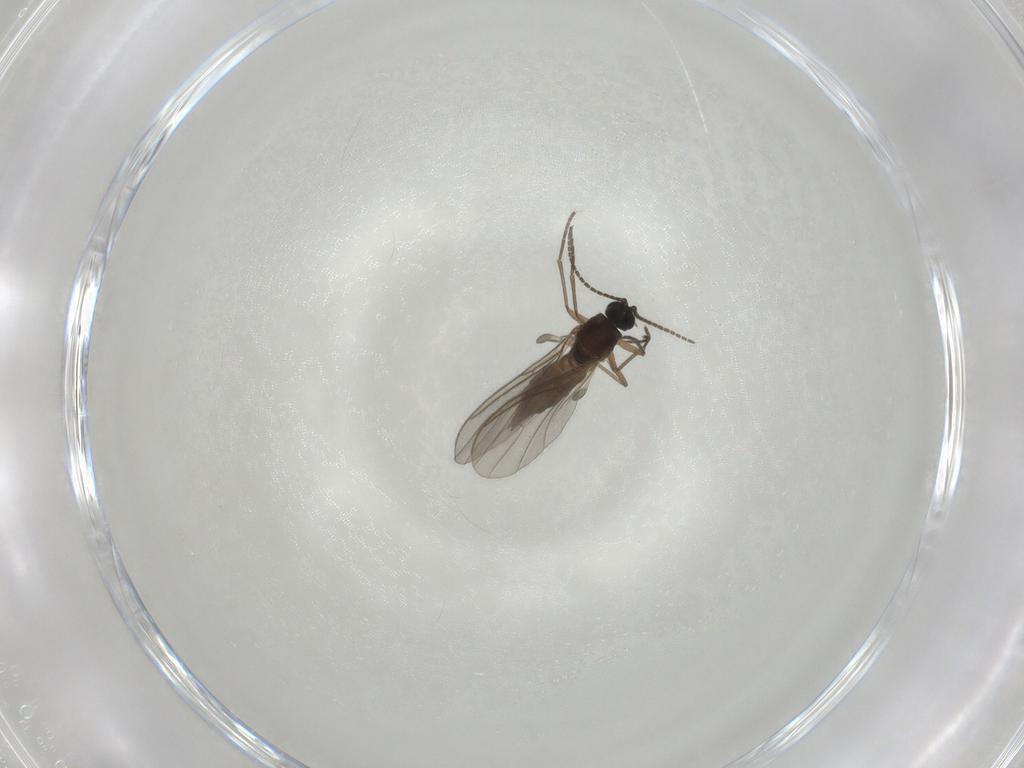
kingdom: Animalia
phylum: Arthropoda
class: Insecta
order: Diptera
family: Sciaridae
